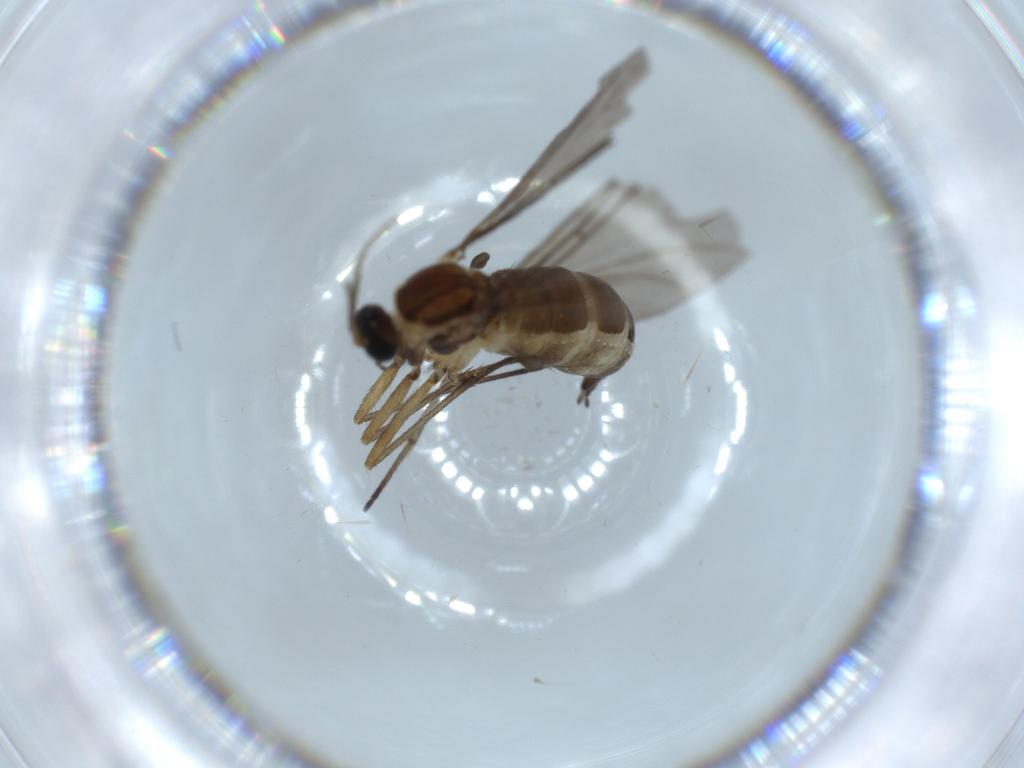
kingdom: Animalia
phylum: Arthropoda
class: Insecta
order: Diptera
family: Sciaridae
